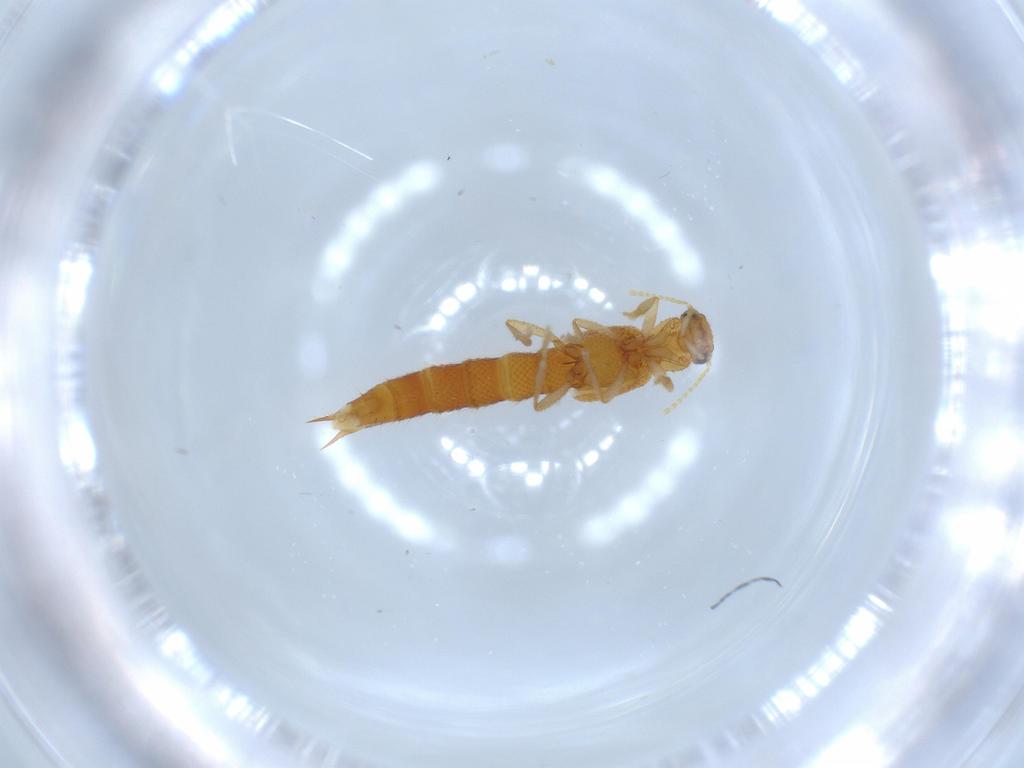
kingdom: Animalia
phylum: Arthropoda
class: Insecta
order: Coleoptera
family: Staphylinidae
